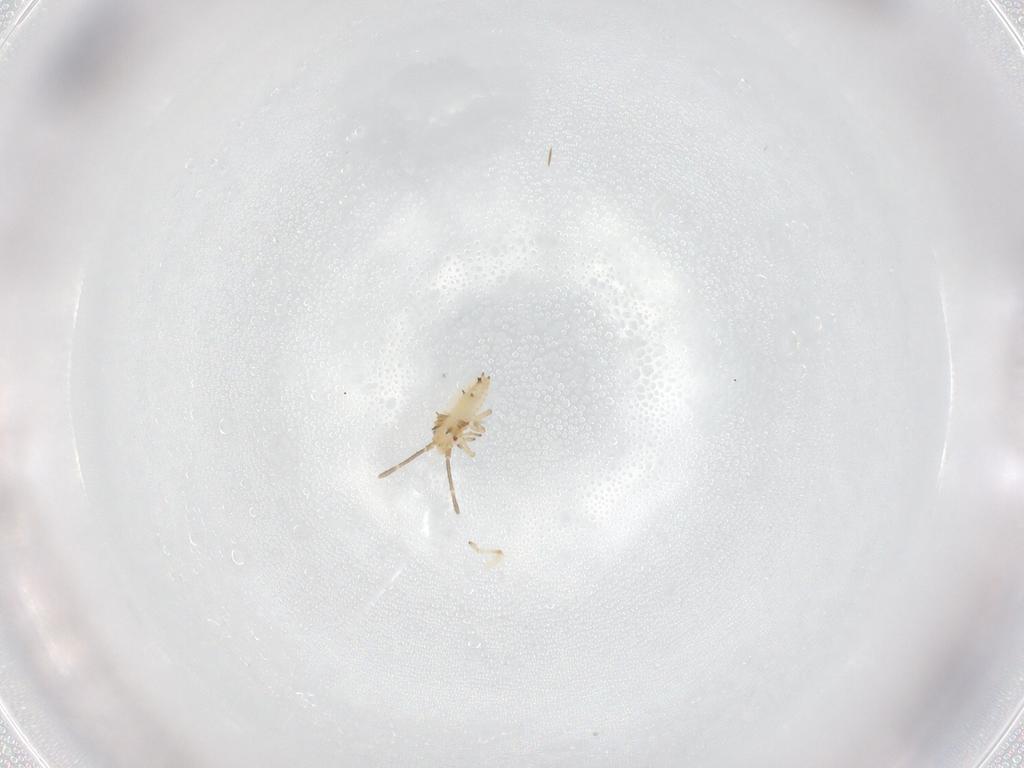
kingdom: Animalia
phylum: Arthropoda
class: Insecta
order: Hemiptera
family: Tingidae
